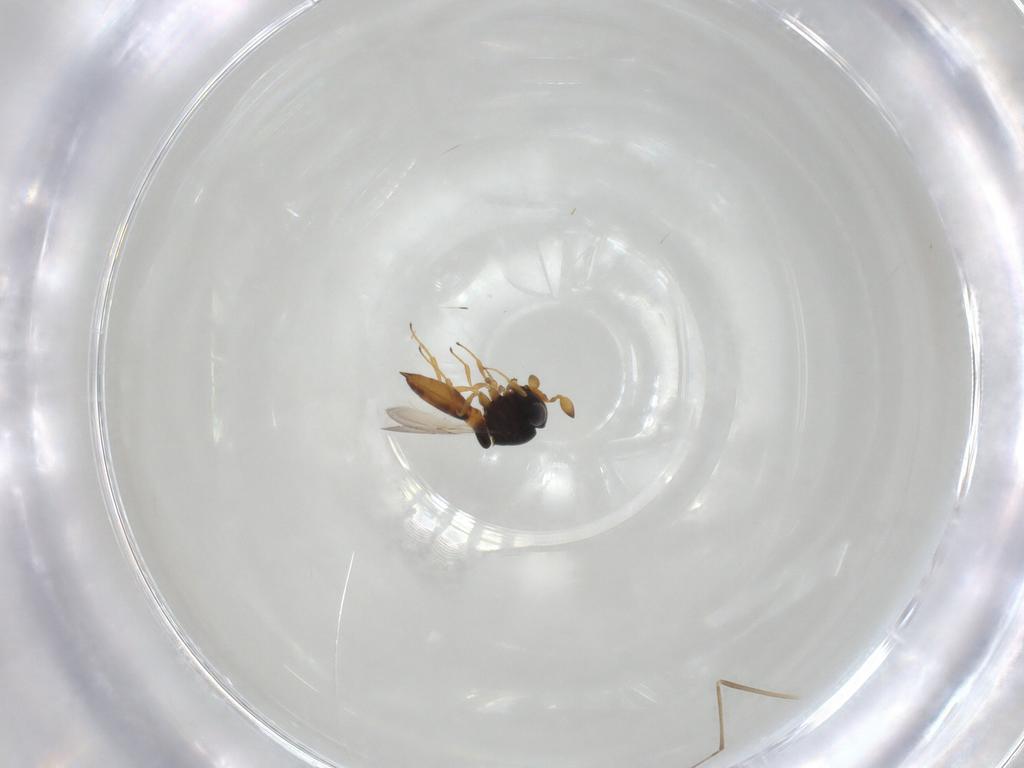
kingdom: Animalia
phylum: Arthropoda
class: Insecta
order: Hymenoptera
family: Scelionidae
